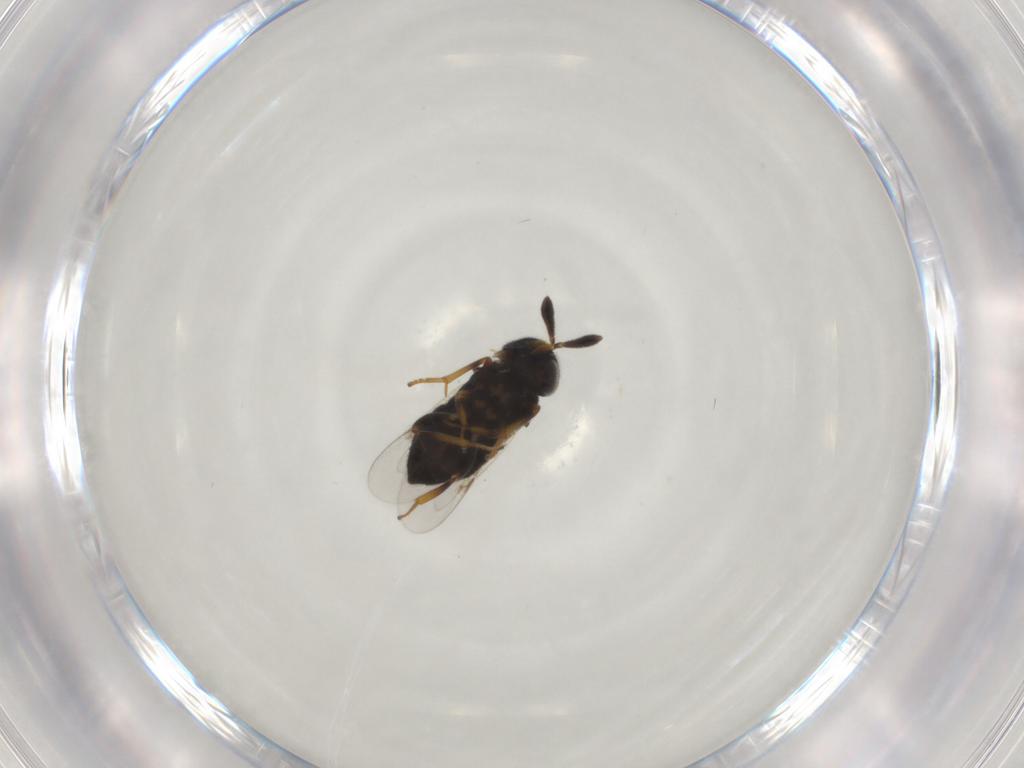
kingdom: Animalia
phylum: Arthropoda
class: Insecta
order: Hymenoptera
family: Encyrtidae
